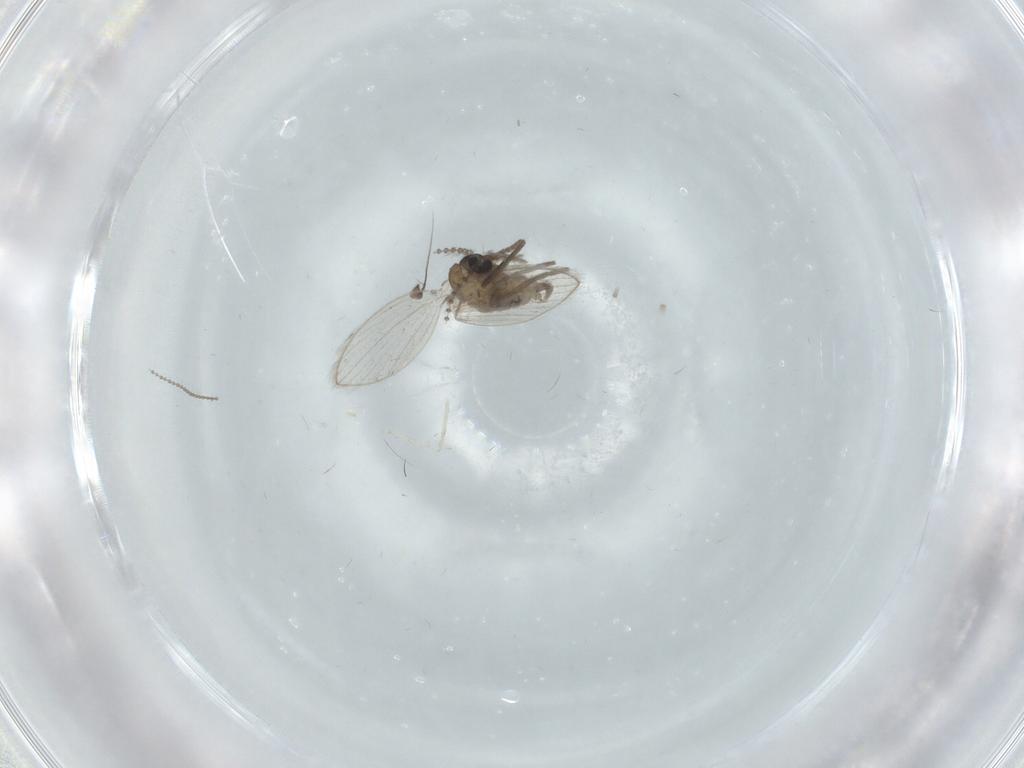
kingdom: Animalia
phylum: Arthropoda
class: Insecta
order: Diptera
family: Psychodidae
